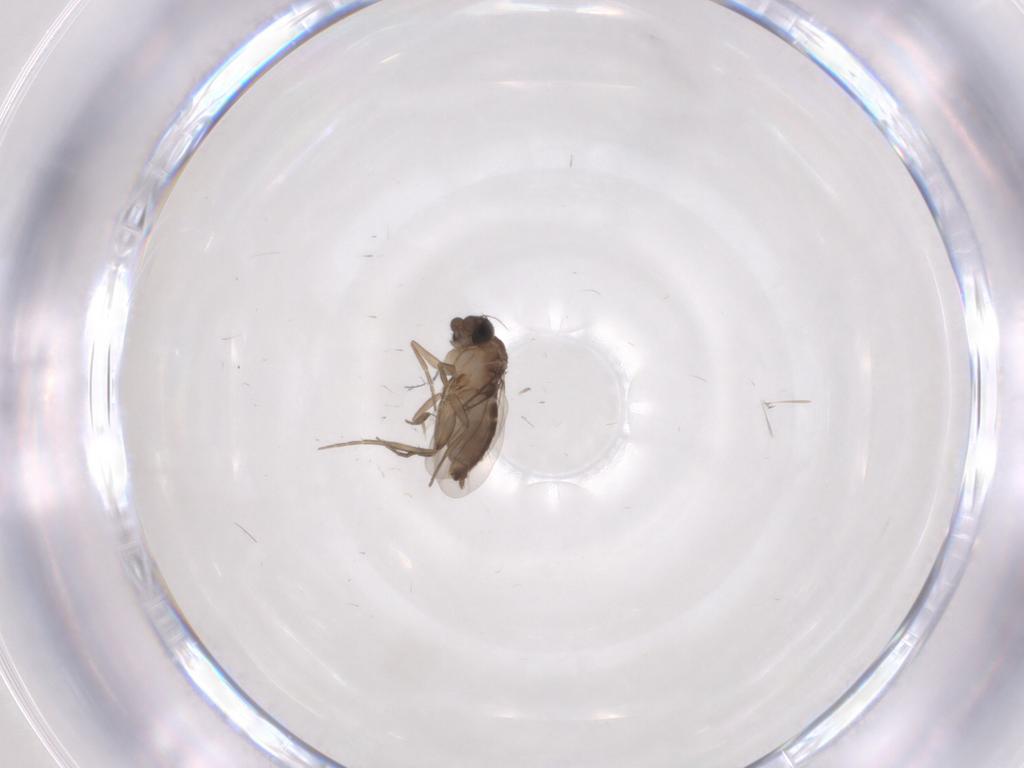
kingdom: Animalia
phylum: Arthropoda
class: Insecta
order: Diptera
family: Phoridae
